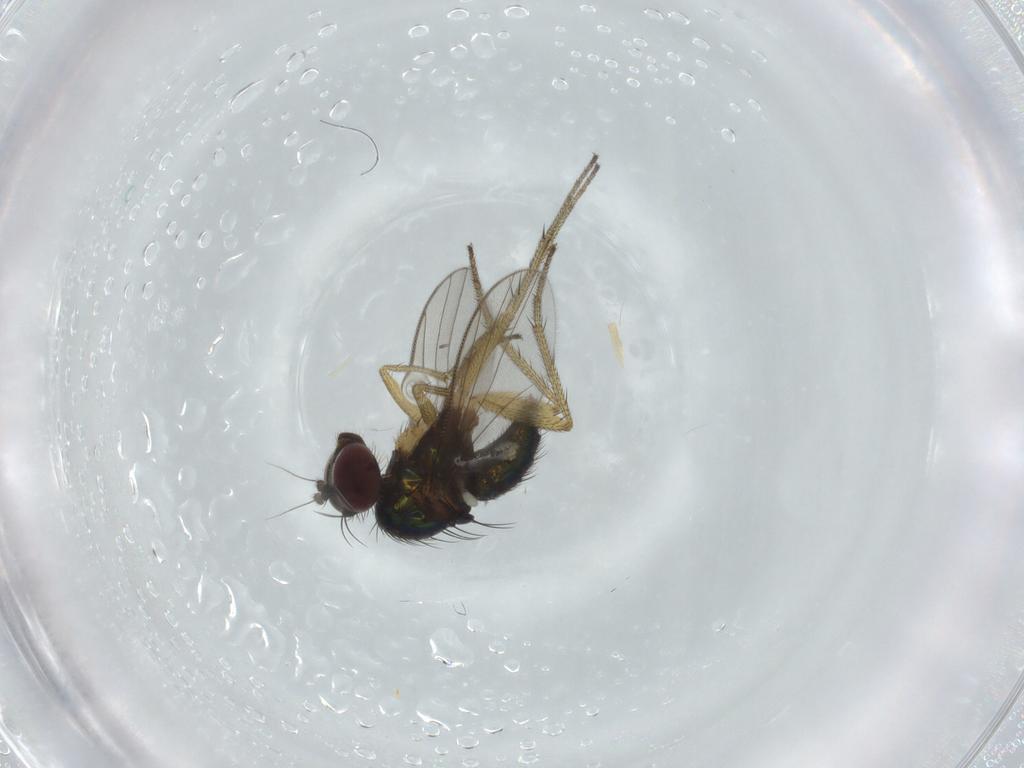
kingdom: Animalia
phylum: Arthropoda
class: Insecta
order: Diptera
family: Dolichopodidae
